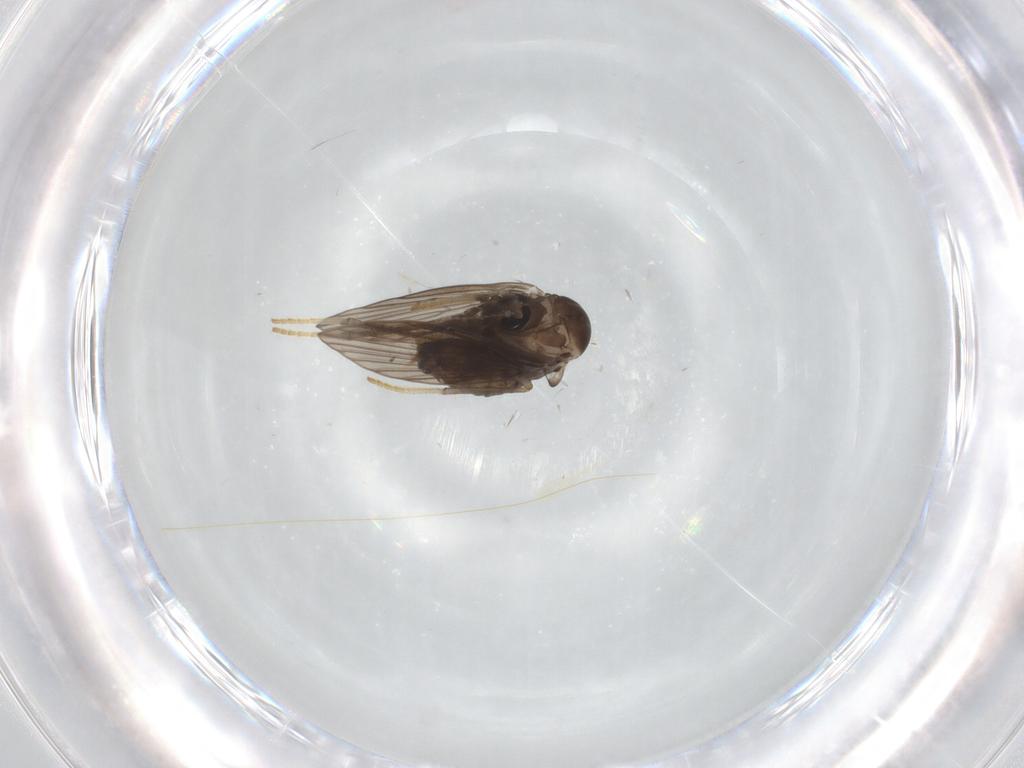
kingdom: Animalia
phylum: Arthropoda
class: Insecta
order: Diptera
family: Psychodidae
